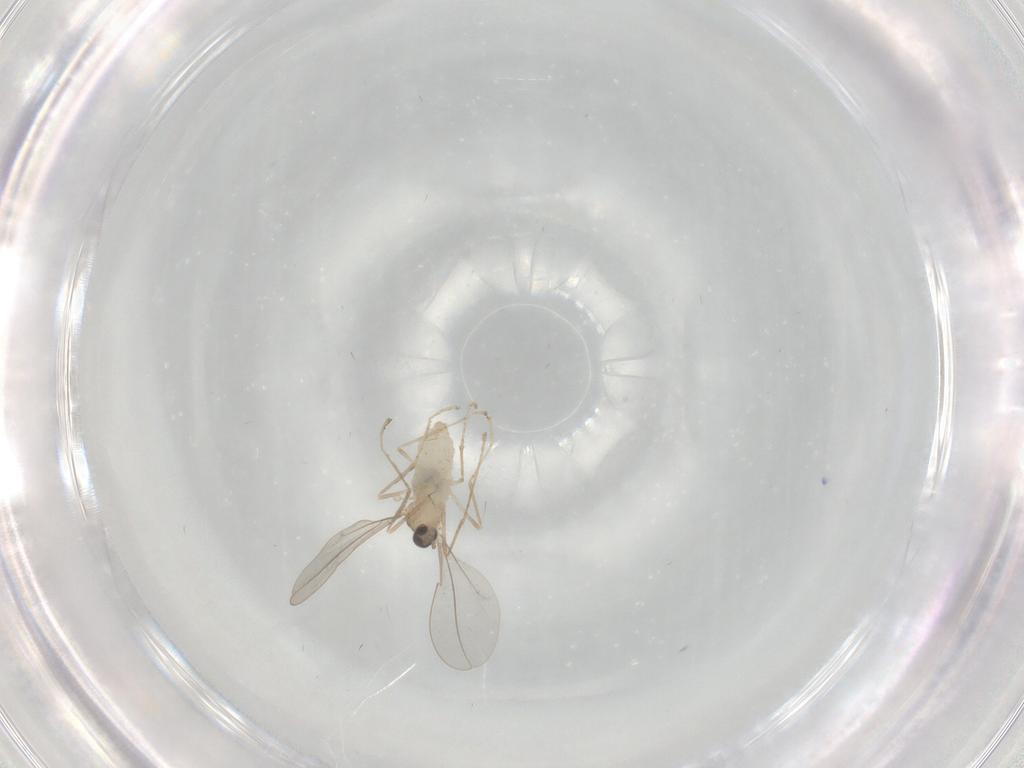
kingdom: Animalia
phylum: Arthropoda
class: Insecta
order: Diptera
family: Cecidomyiidae
